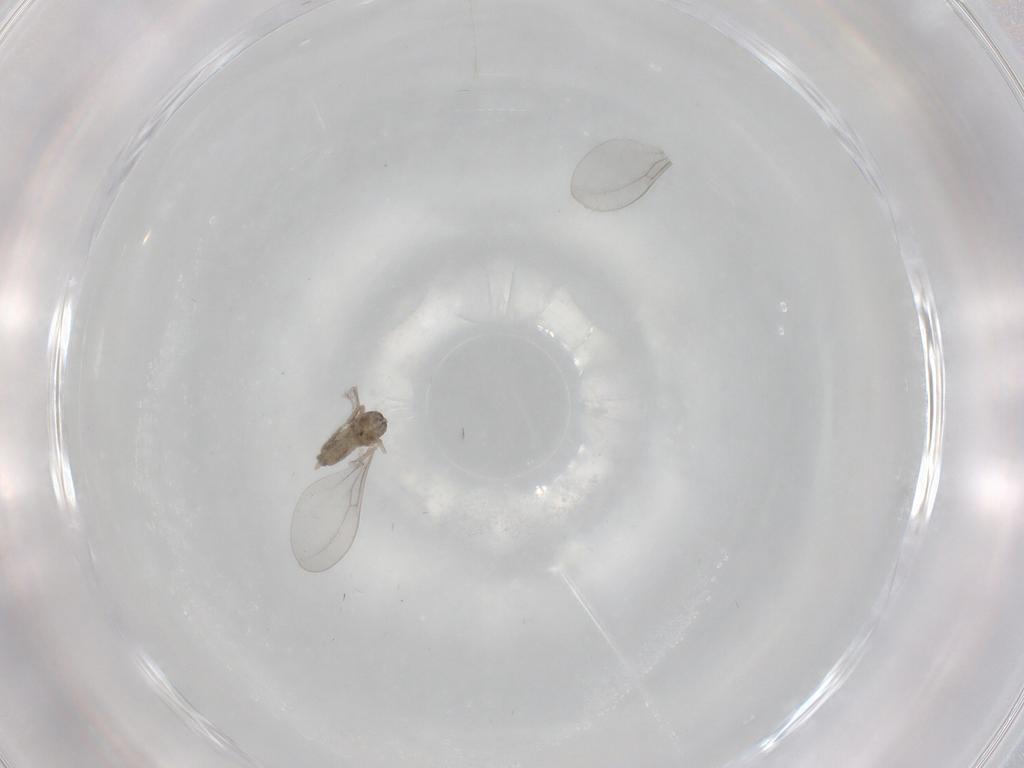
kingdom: Animalia
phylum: Arthropoda
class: Insecta
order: Diptera
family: Cecidomyiidae
